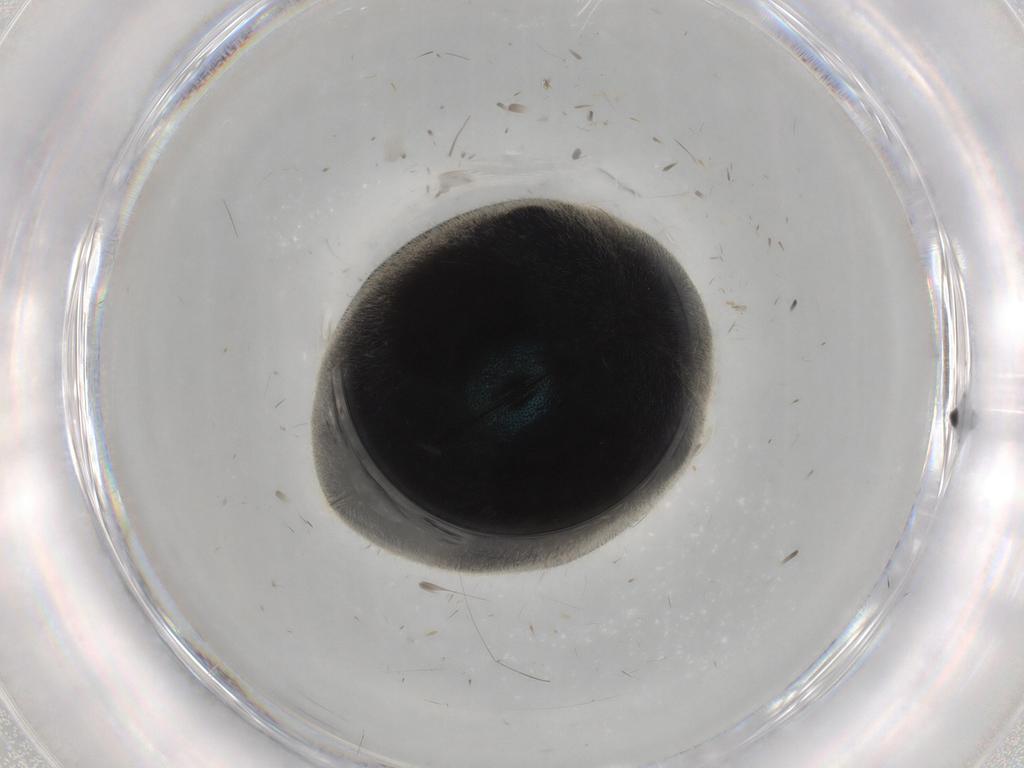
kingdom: Animalia
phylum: Arthropoda
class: Insecta
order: Coleoptera
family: Coccinellidae
